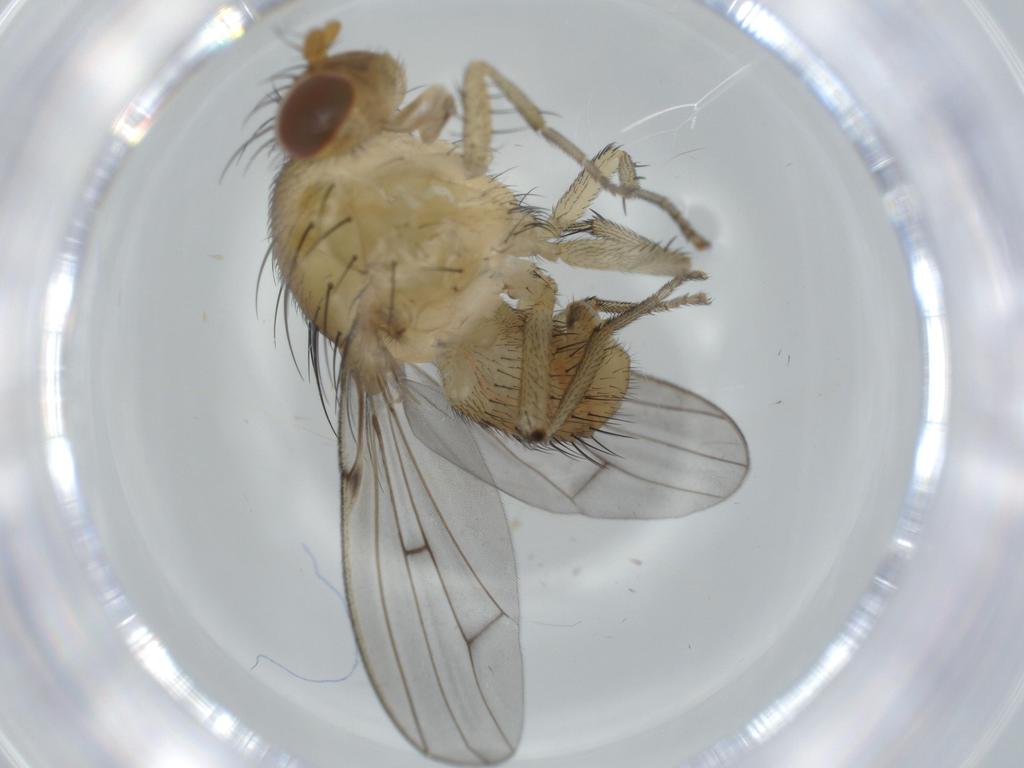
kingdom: Animalia
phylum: Arthropoda
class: Insecta
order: Diptera
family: Lauxaniidae
